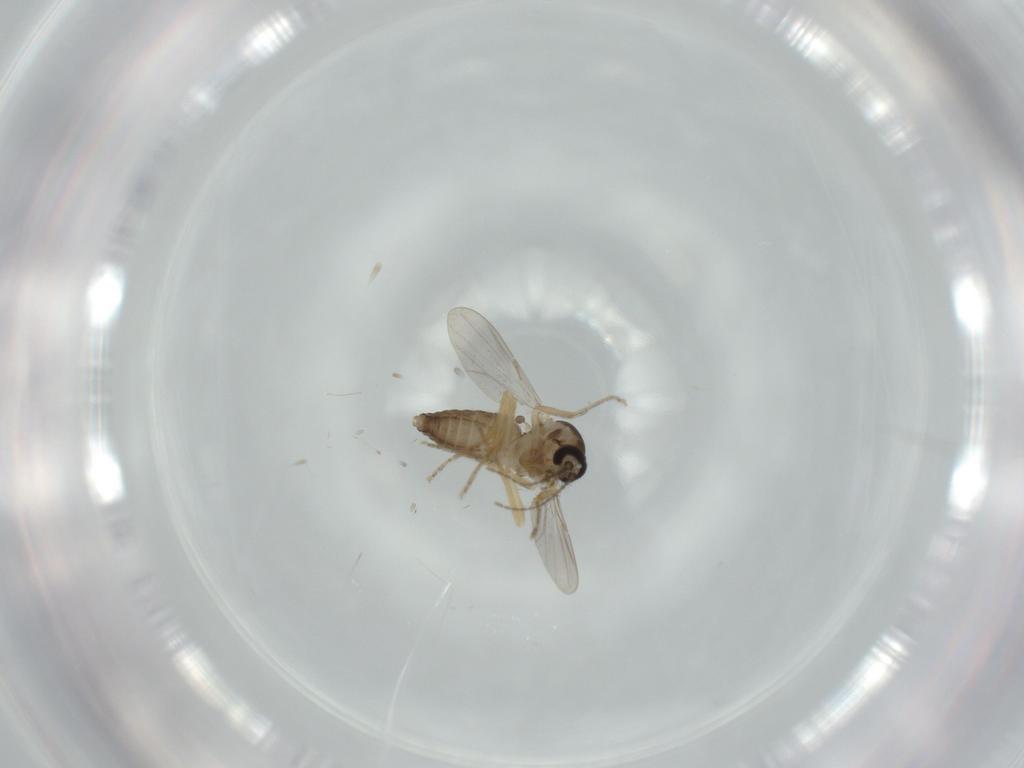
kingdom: Animalia
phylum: Arthropoda
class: Insecta
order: Diptera
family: Ceratopogonidae
